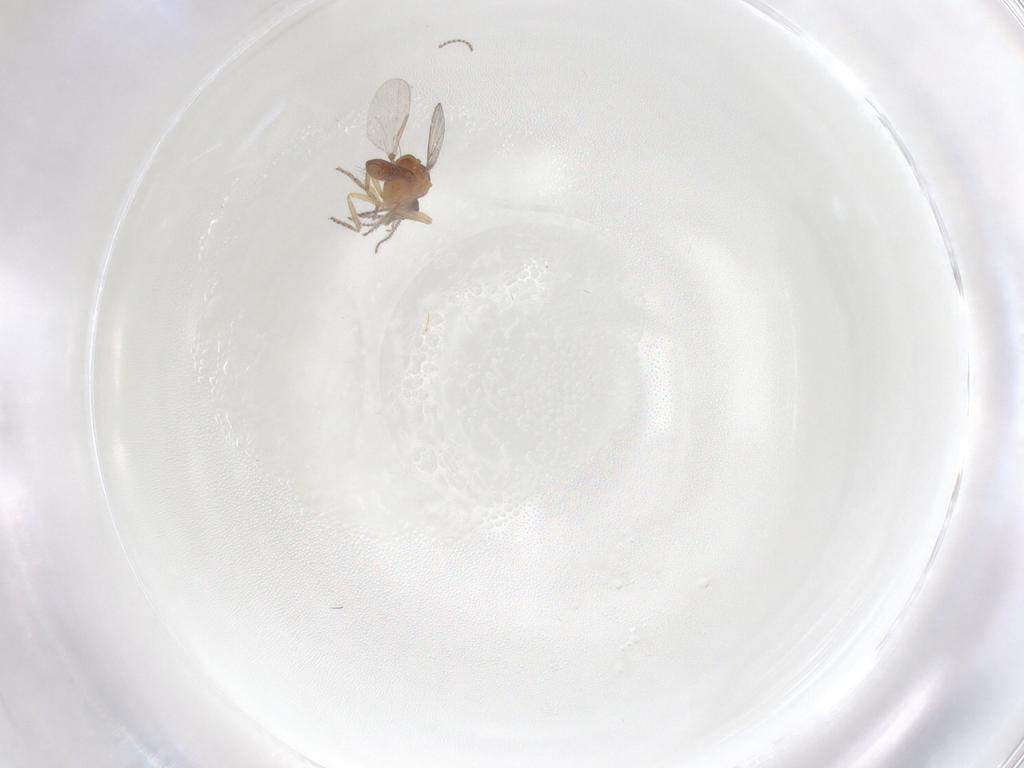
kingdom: Animalia
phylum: Arthropoda
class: Insecta
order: Diptera
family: Ceratopogonidae
